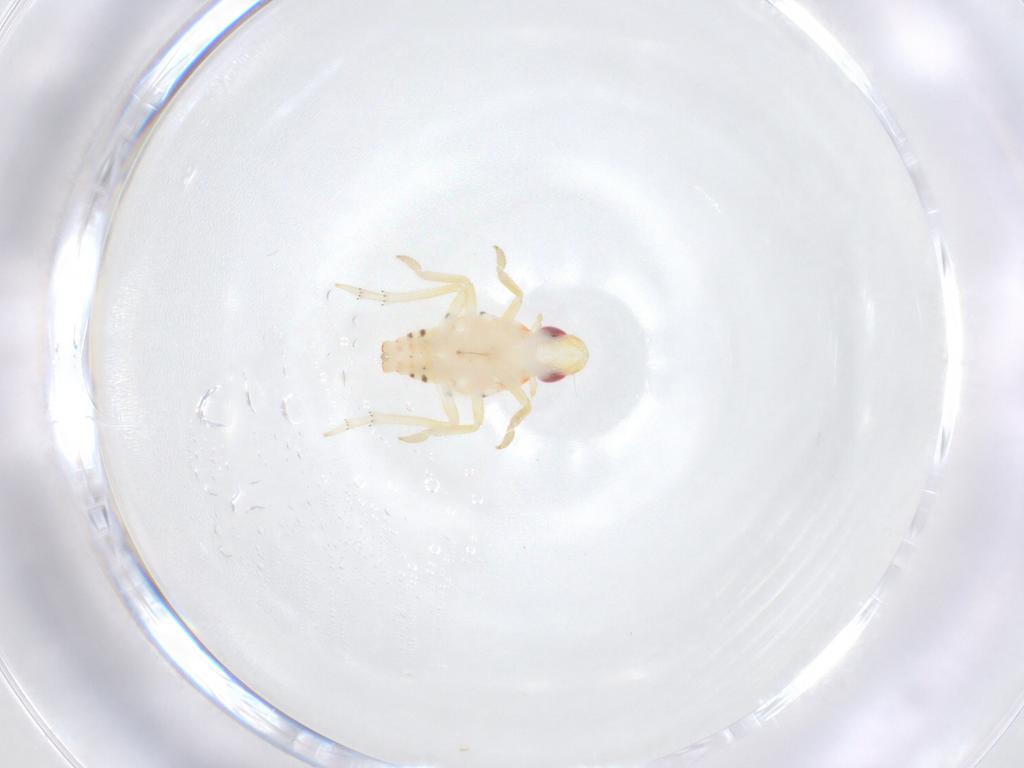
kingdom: Animalia
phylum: Arthropoda
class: Insecta
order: Hemiptera
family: Tropiduchidae
